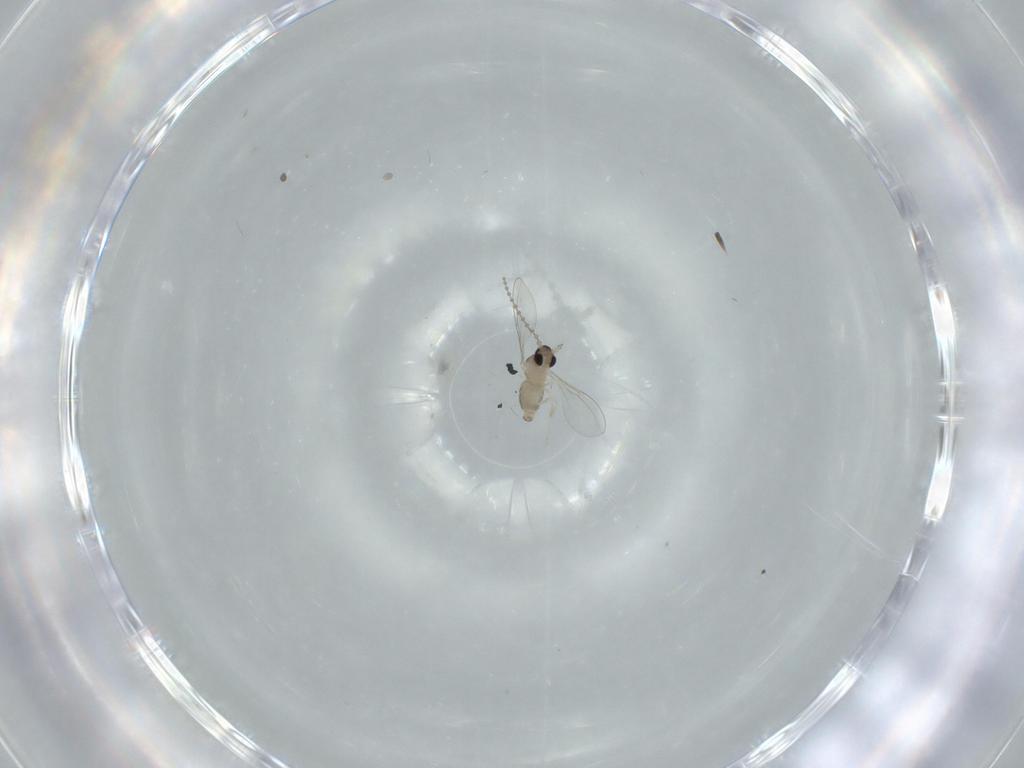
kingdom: Animalia
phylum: Arthropoda
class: Insecta
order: Diptera
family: Cecidomyiidae
